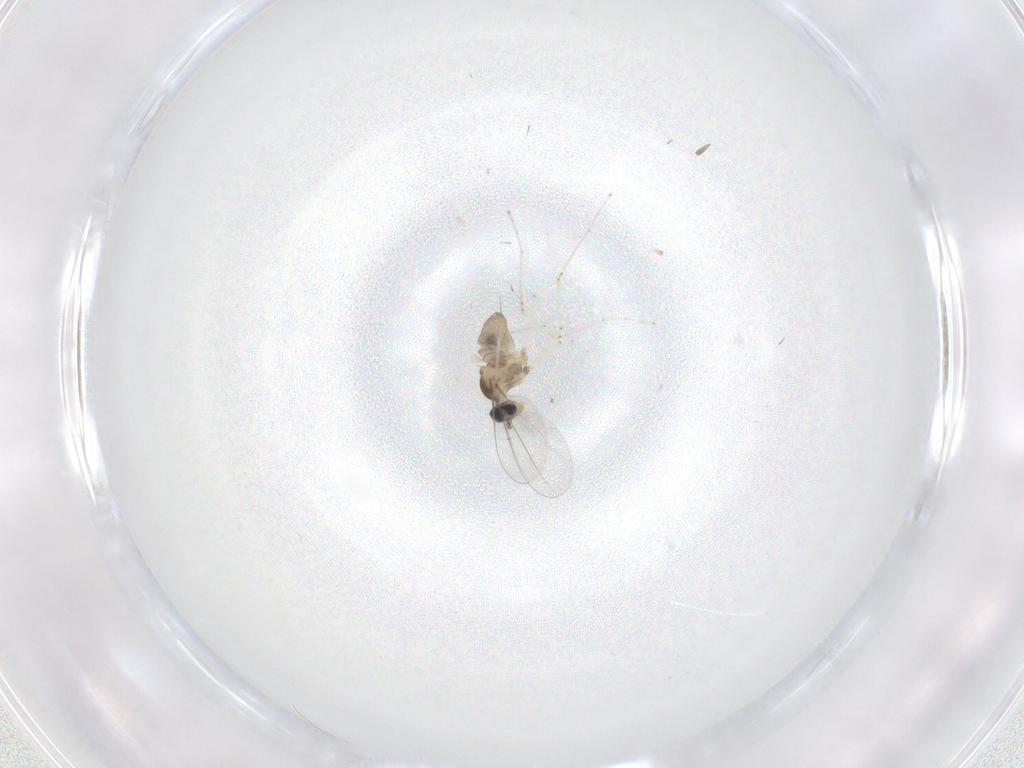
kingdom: Animalia
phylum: Arthropoda
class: Insecta
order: Diptera
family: Cecidomyiidae
